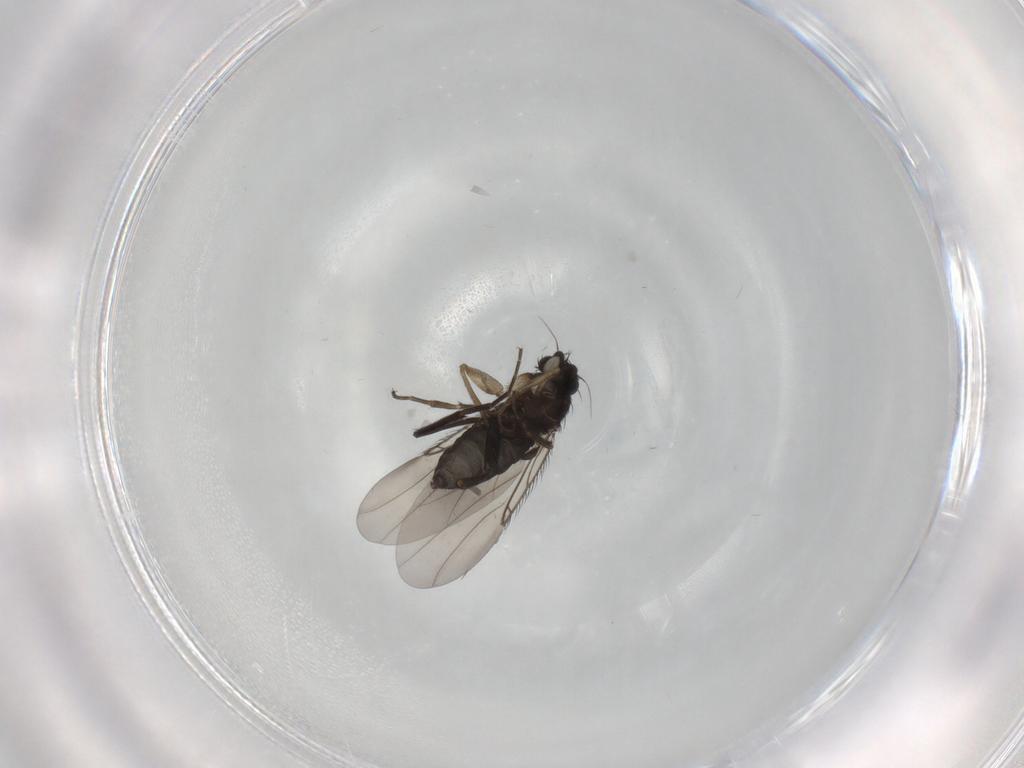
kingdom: Animalia
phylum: Arthropoda
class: Insecta
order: Diptera
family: Phoridae
